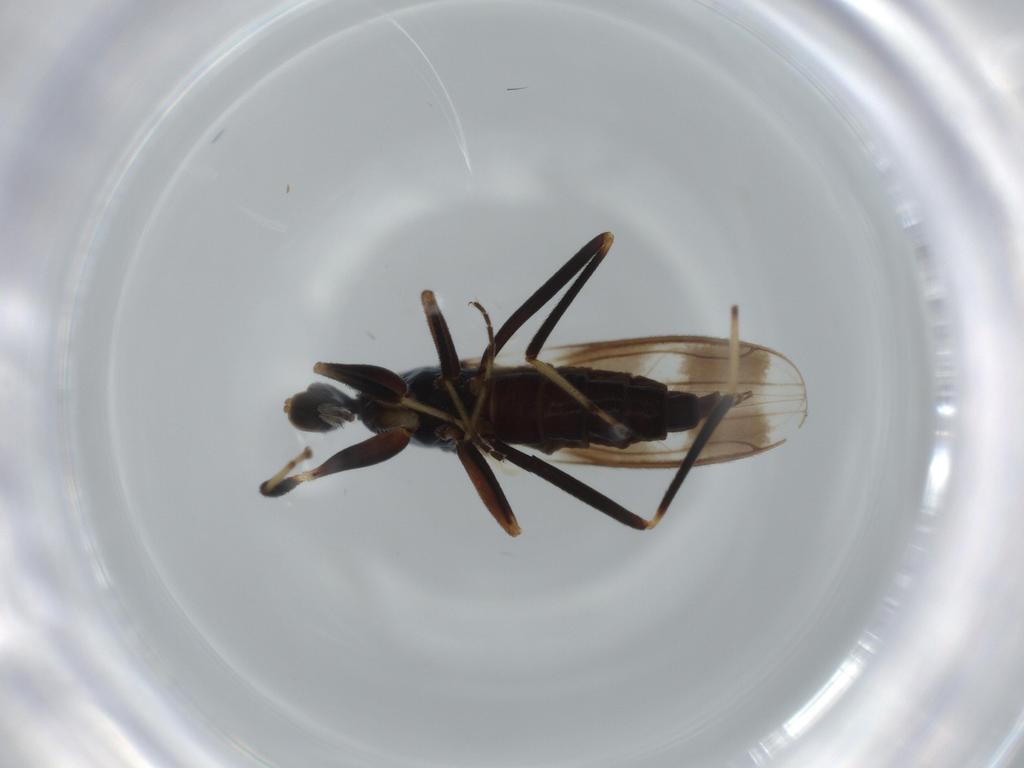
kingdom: Animalia
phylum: Arthropoda
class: Insecta
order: Diptera
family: Hybotidae
